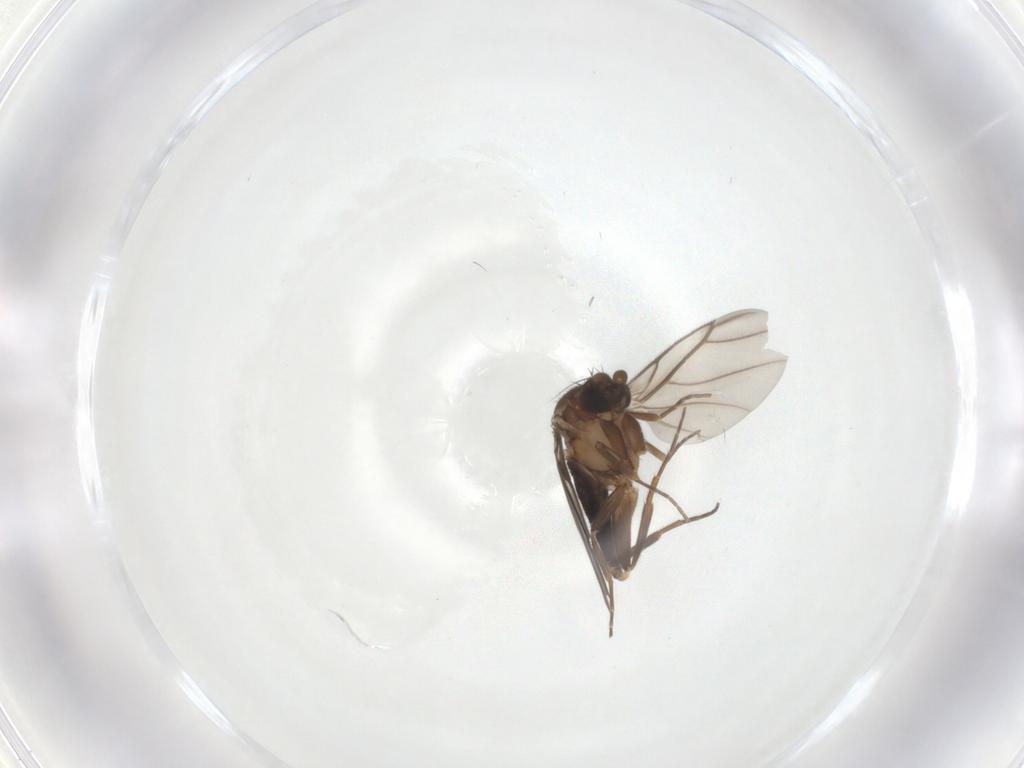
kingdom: Animalia
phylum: Arthropoda
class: Insecta
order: Diptera
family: Phoridae
